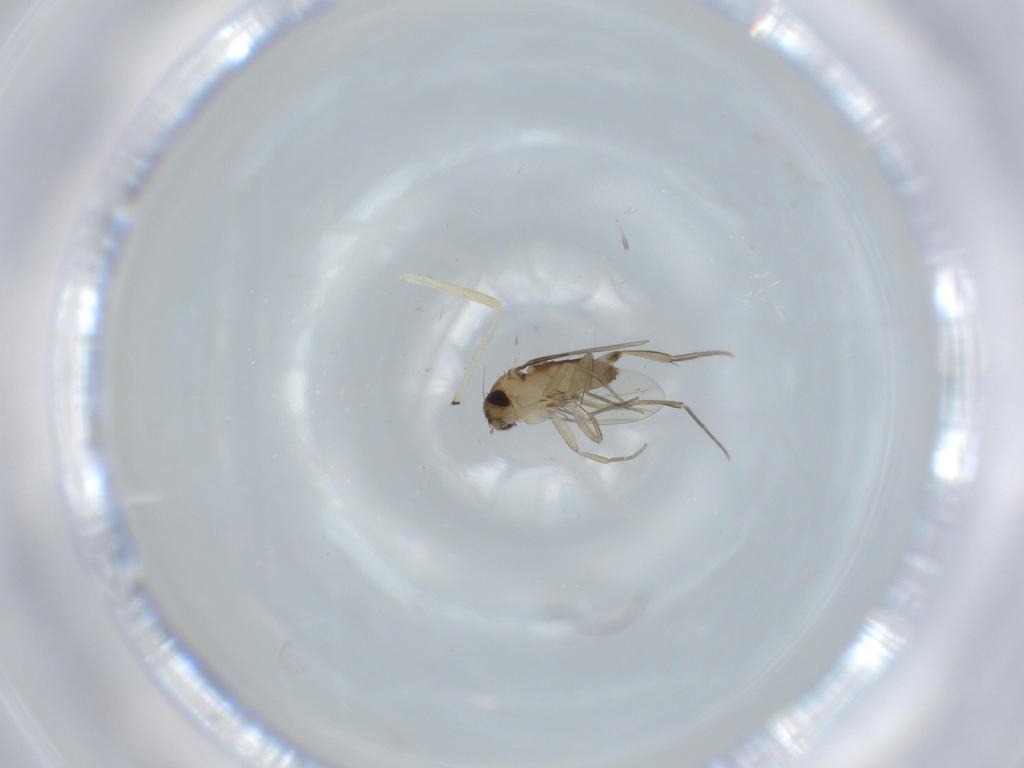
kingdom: Animalia
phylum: Arthropoda
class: Insecta
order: Diptera
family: Phoridae
